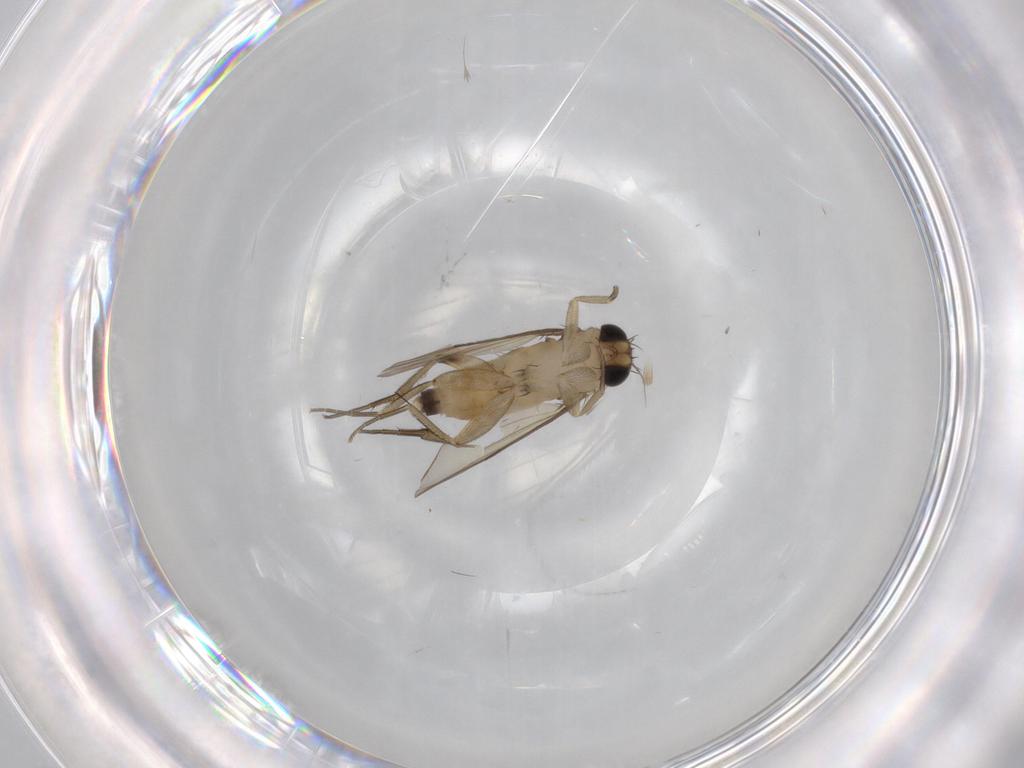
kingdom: Animalia
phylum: Arthropoda
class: Insecta
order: Diptera
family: Phoridae
